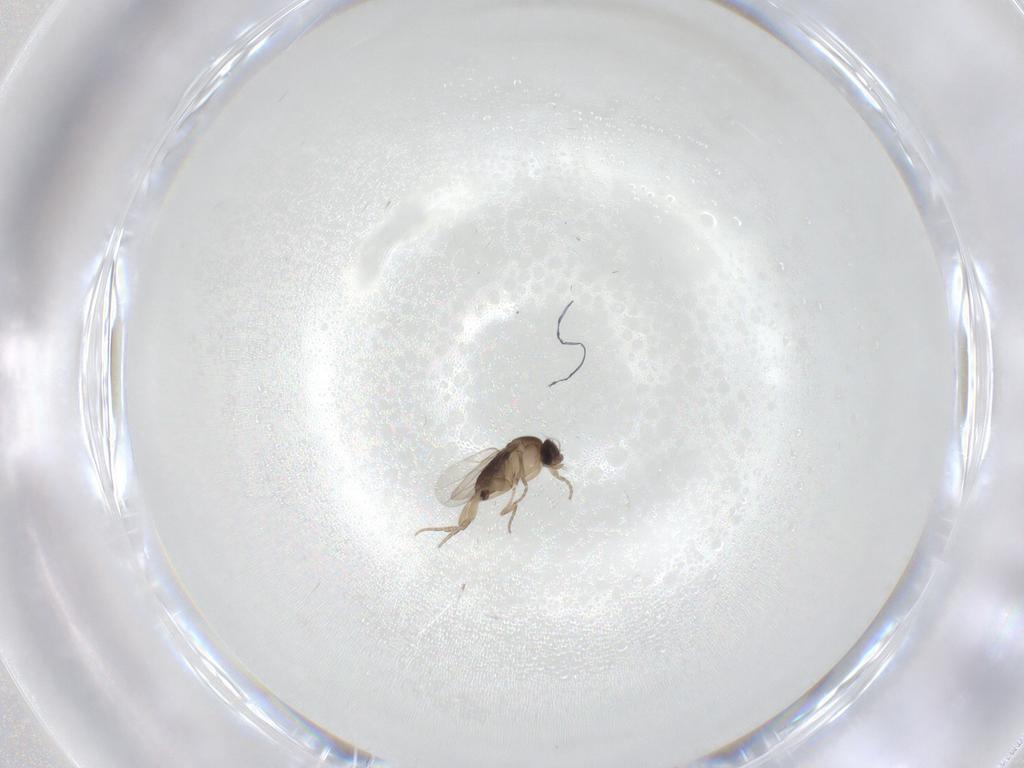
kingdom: Animalia
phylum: Arthropoda
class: Insecta
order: Diptera
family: Phoridae
